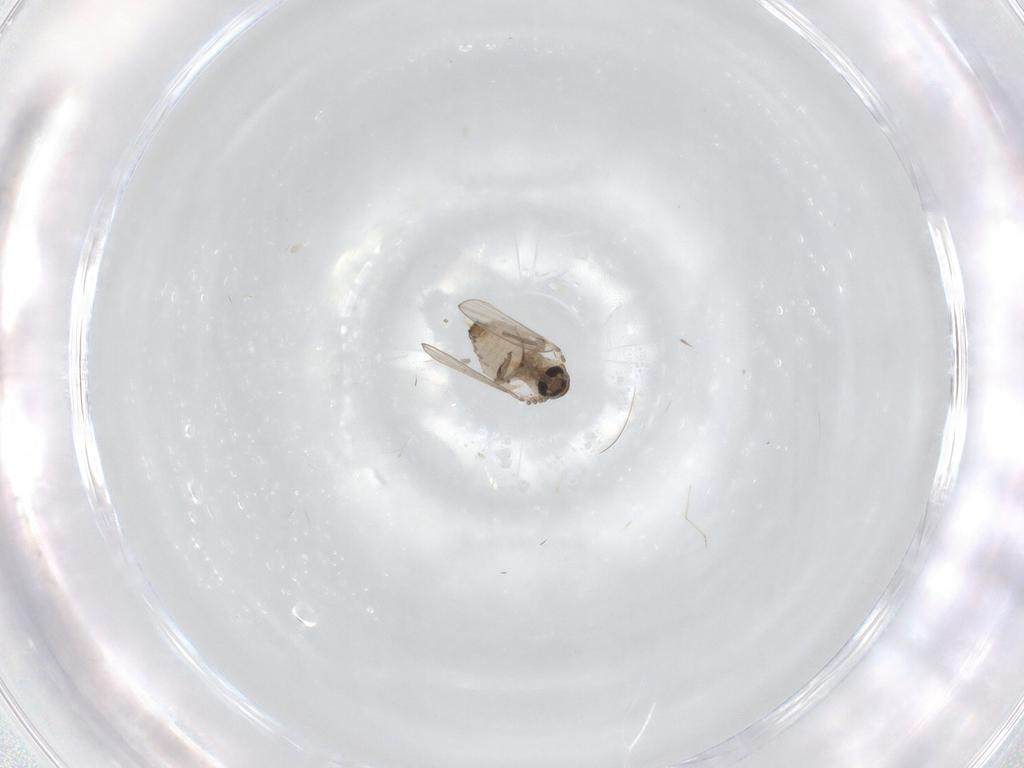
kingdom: Animalia
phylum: Arthropoda
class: Insecta
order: Diptera
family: Psychodidae
